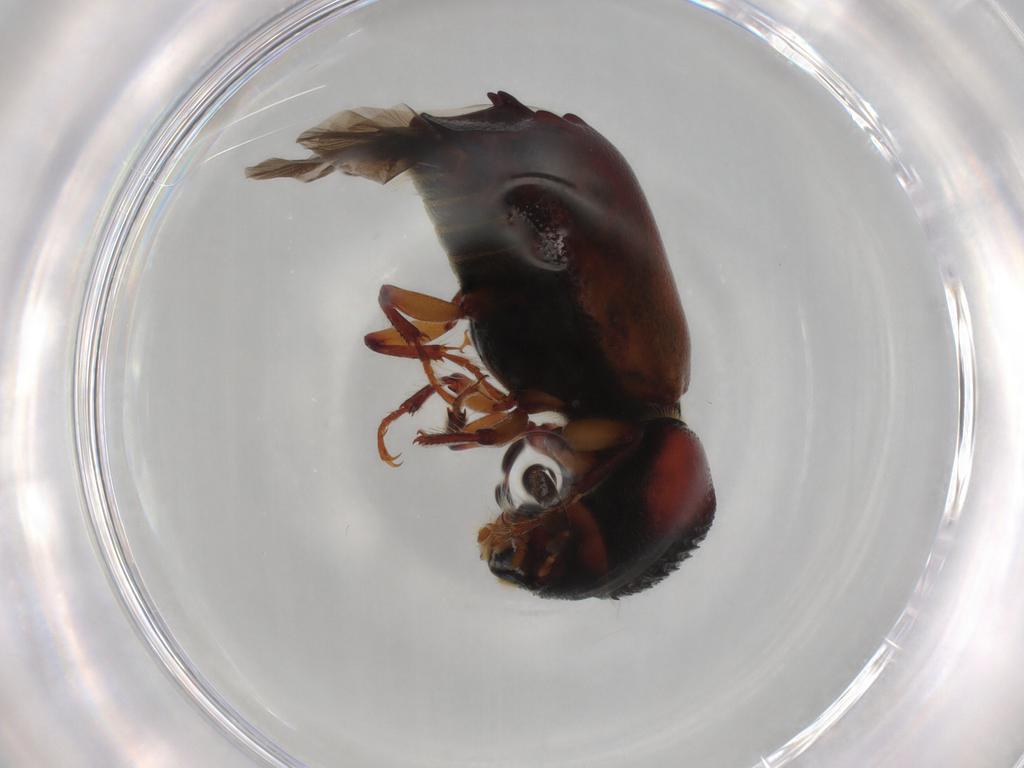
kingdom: Animalia
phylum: Arthropoda
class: Insecta
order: Coleoptera
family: Bostrichidae
